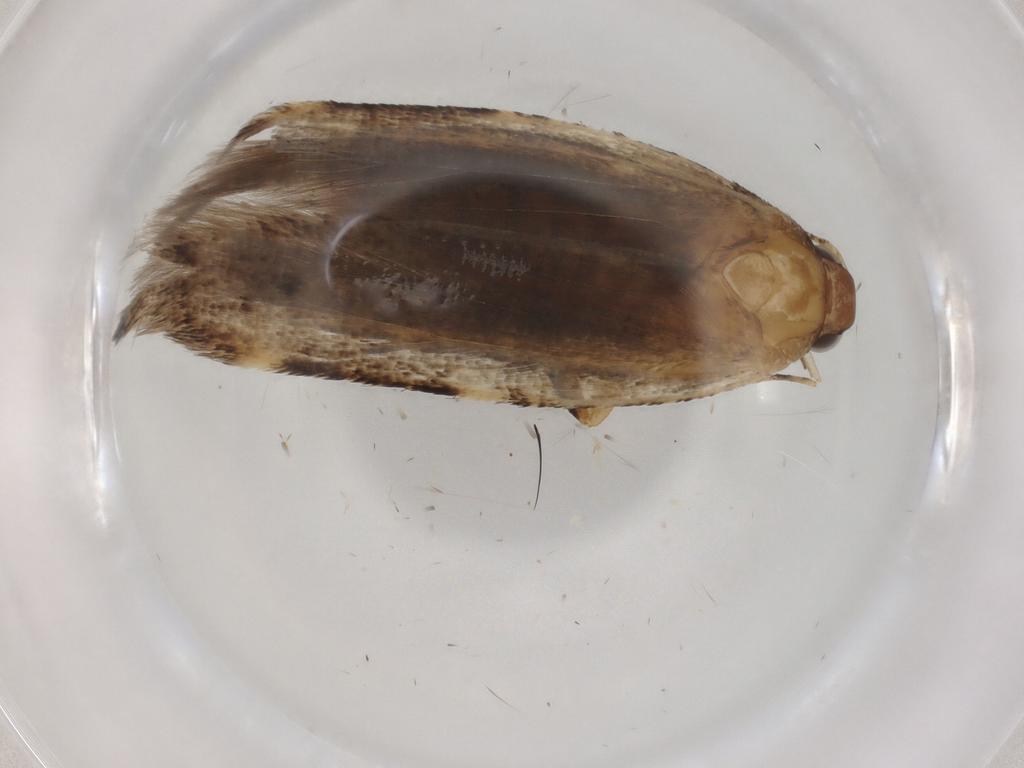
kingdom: Animalia
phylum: Arthropoda
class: Insecta
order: Lepidoptera
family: Gelechiidae
